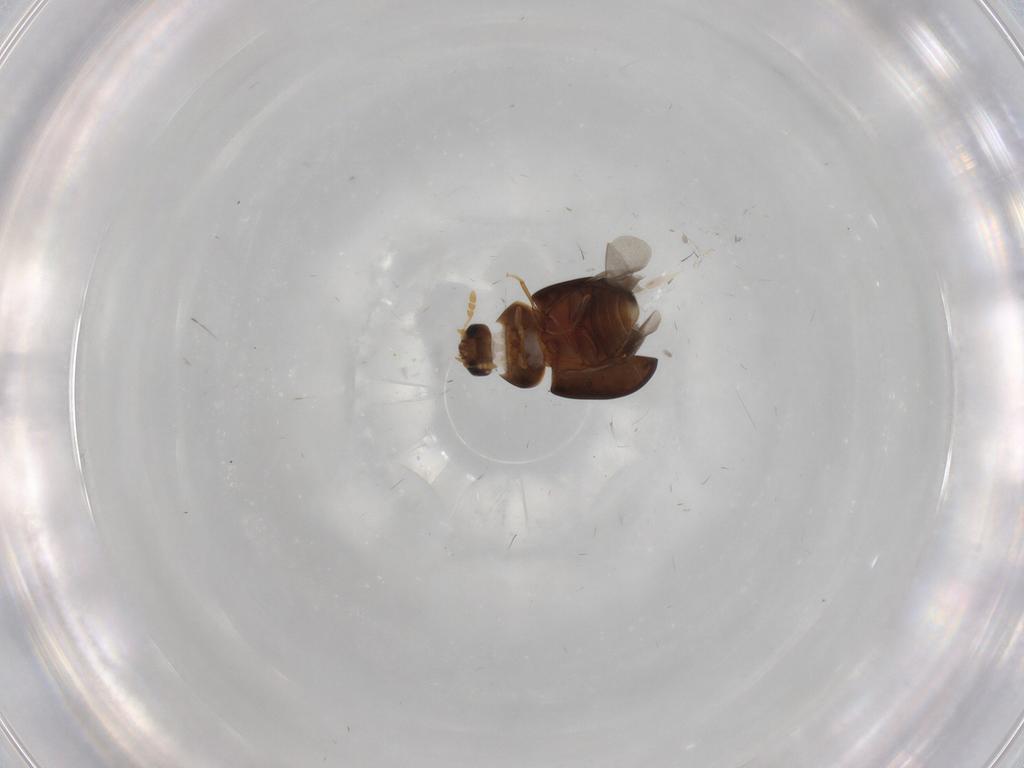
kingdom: Animalia
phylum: Arthropoda
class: Insecta
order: Coleoptera
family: Phalacridae
